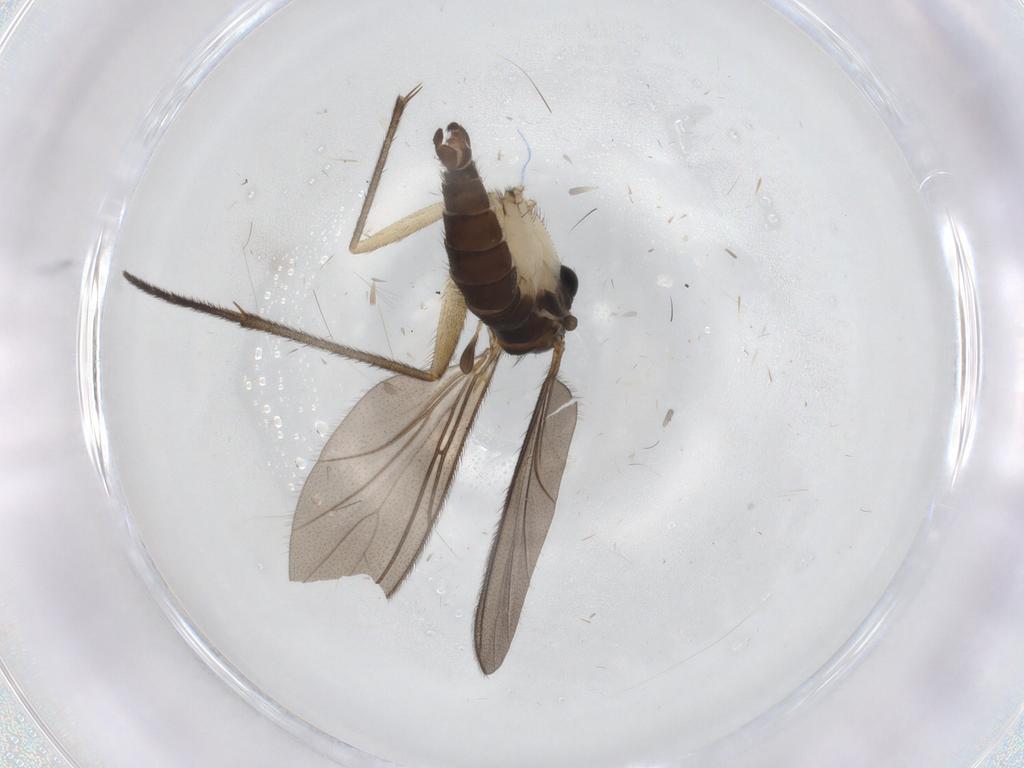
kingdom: Animalia
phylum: Arthropoda
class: Insecta
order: Diptera
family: Sciaridae
